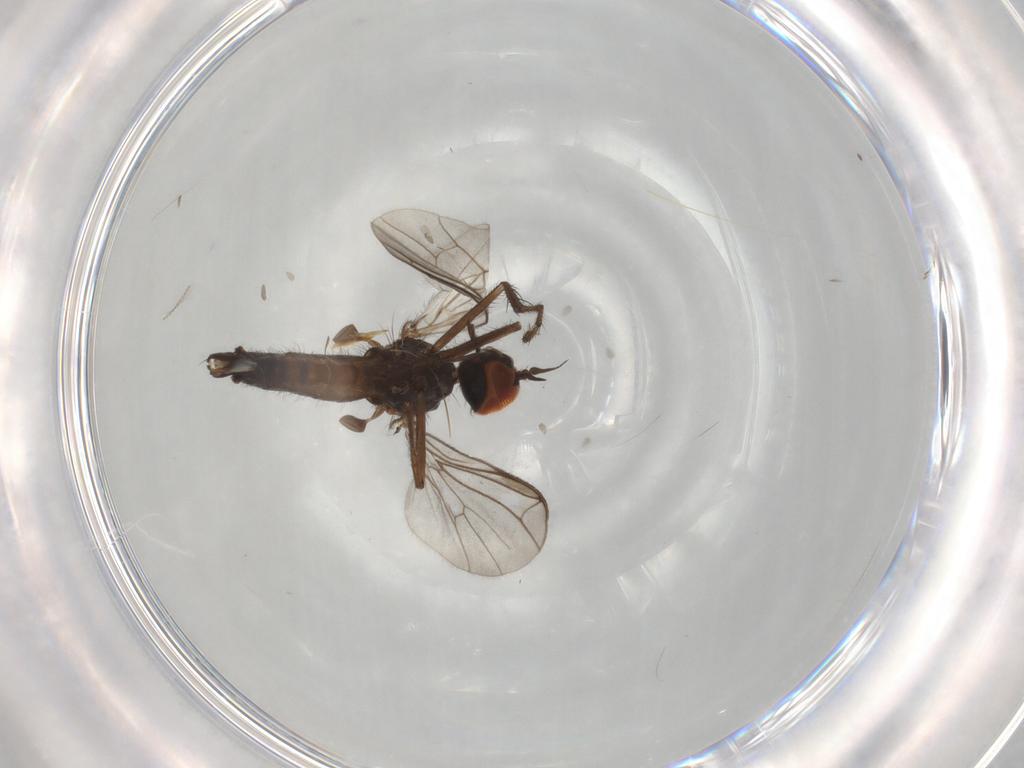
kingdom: Animalia
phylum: Arthropoda
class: Insecta
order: Diptera
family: Empididae
